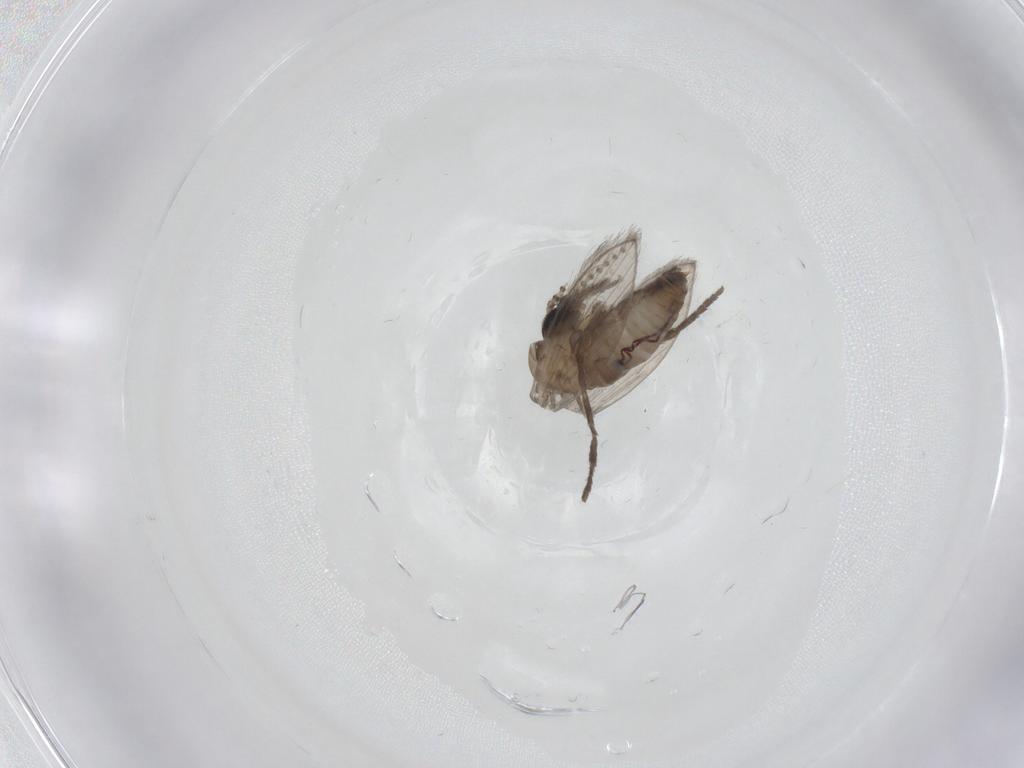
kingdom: Animalia
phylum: Arthropoda
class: Insecta
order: Diptera
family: Psychodidae
